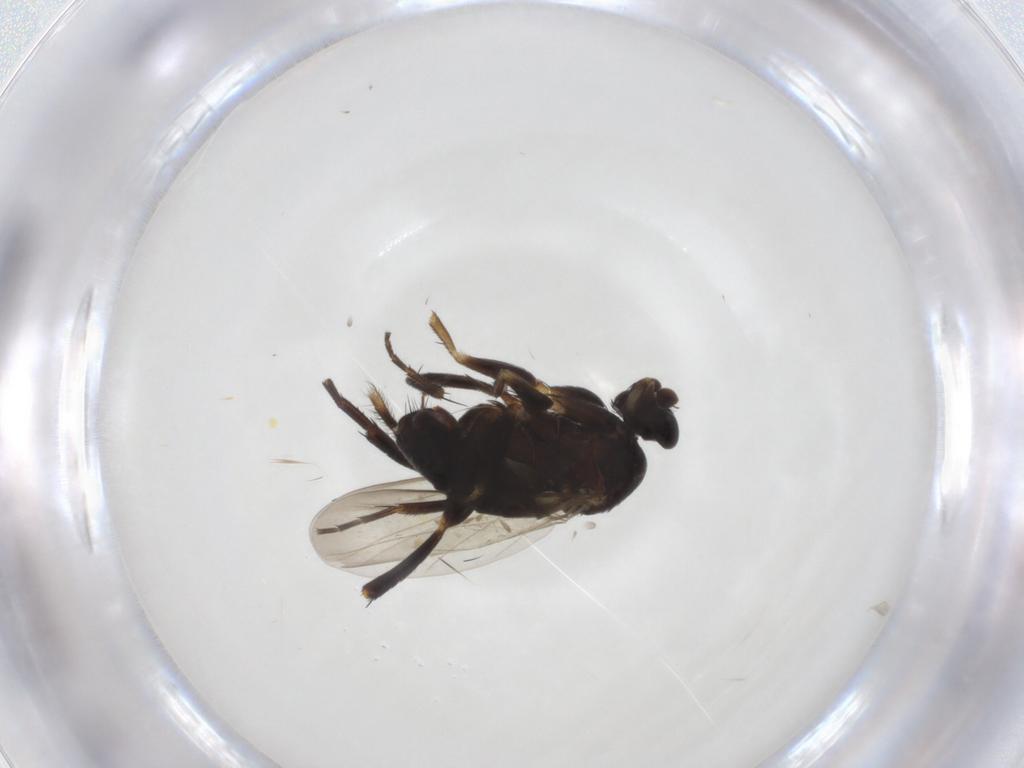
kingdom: Animalia
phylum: Arthropoda
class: Insecta
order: Diptera
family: Phoridae
